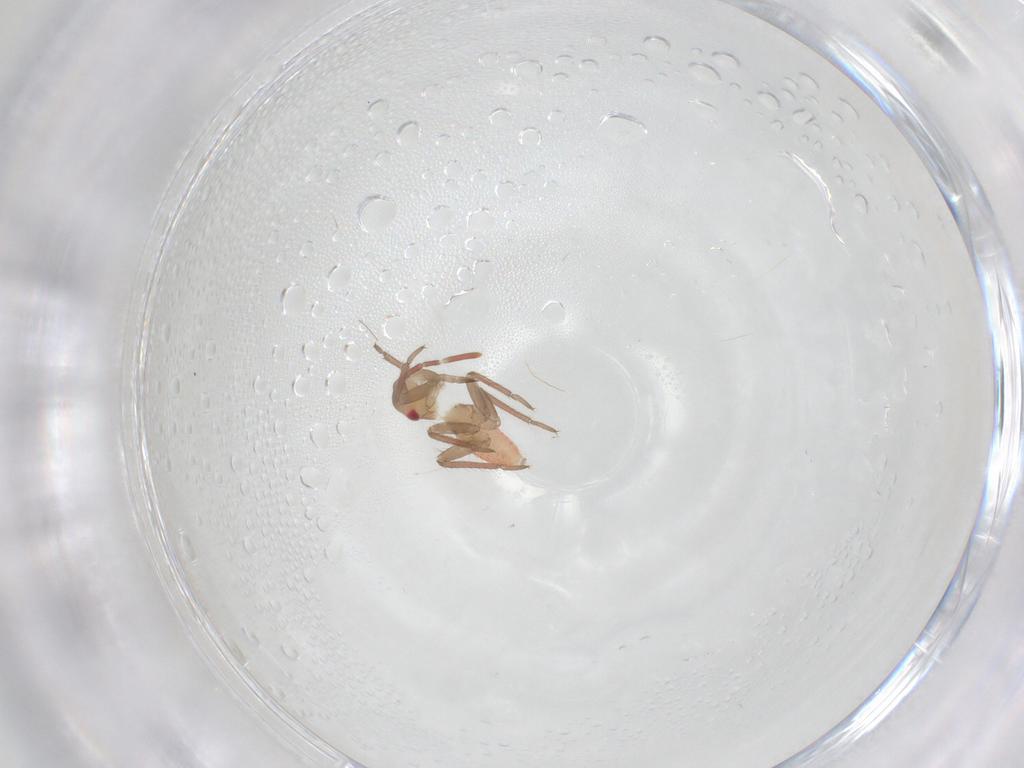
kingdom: Animalia
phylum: Arthropoda
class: Insecta
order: Hemiptera
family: Miridae
